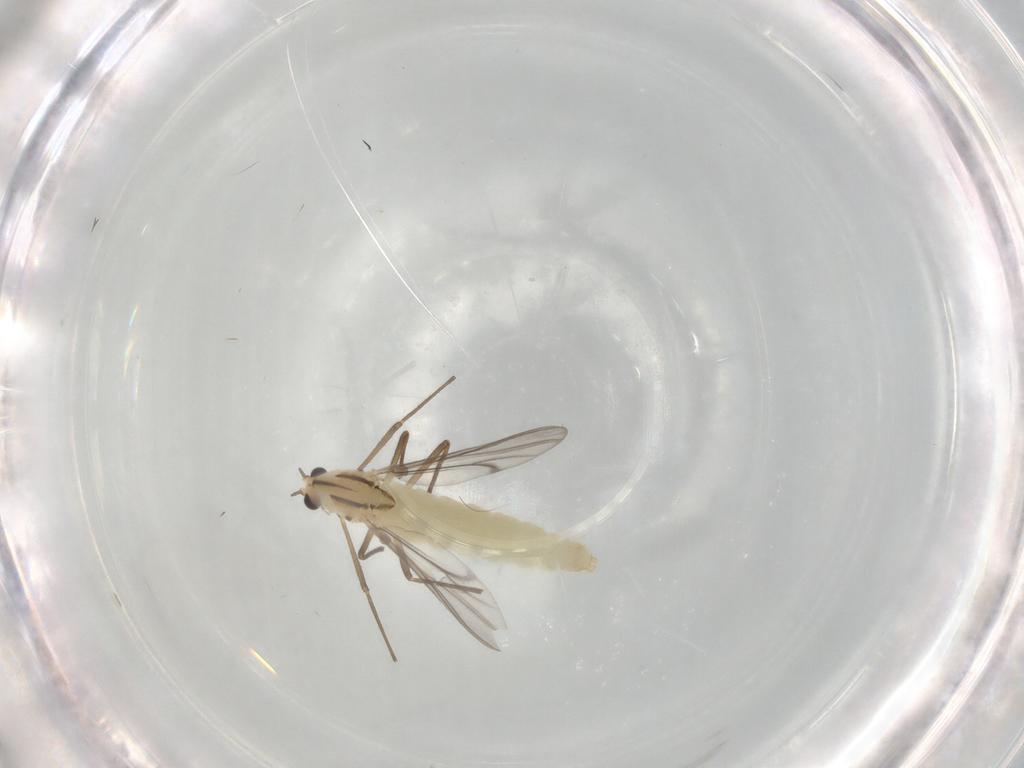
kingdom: Animalia
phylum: Arthropoda
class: Insecta
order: Diptera
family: Chironomidae
